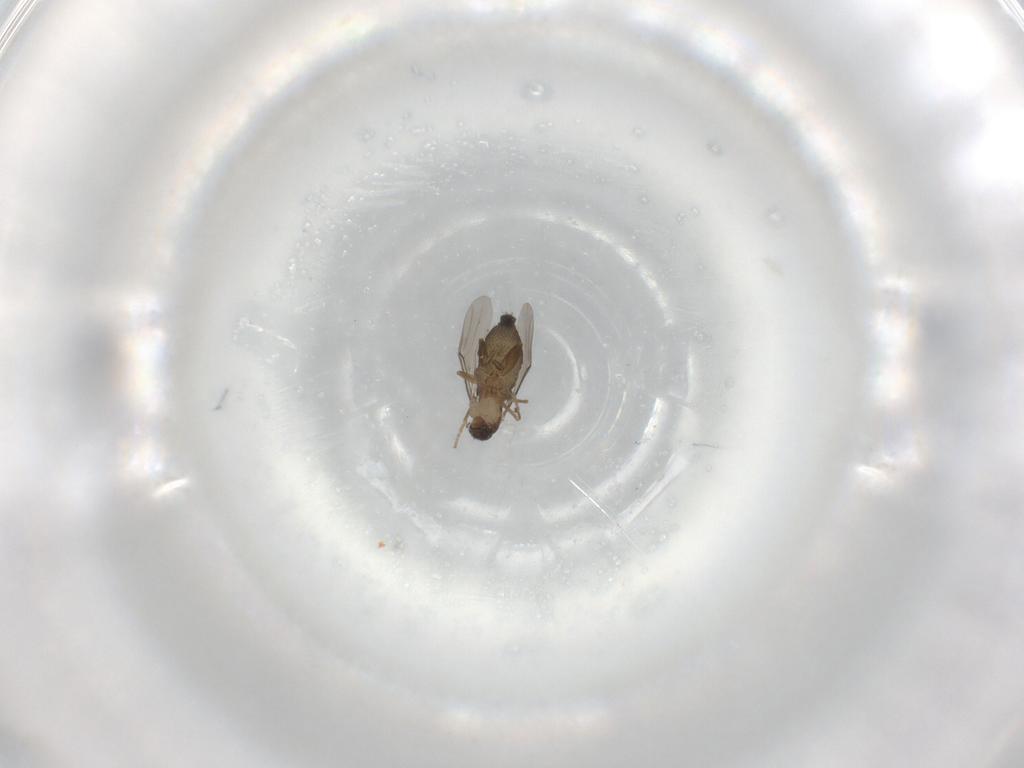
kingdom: Animalia
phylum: Arthropoda
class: Insecta
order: Diptera
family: Phoridae
